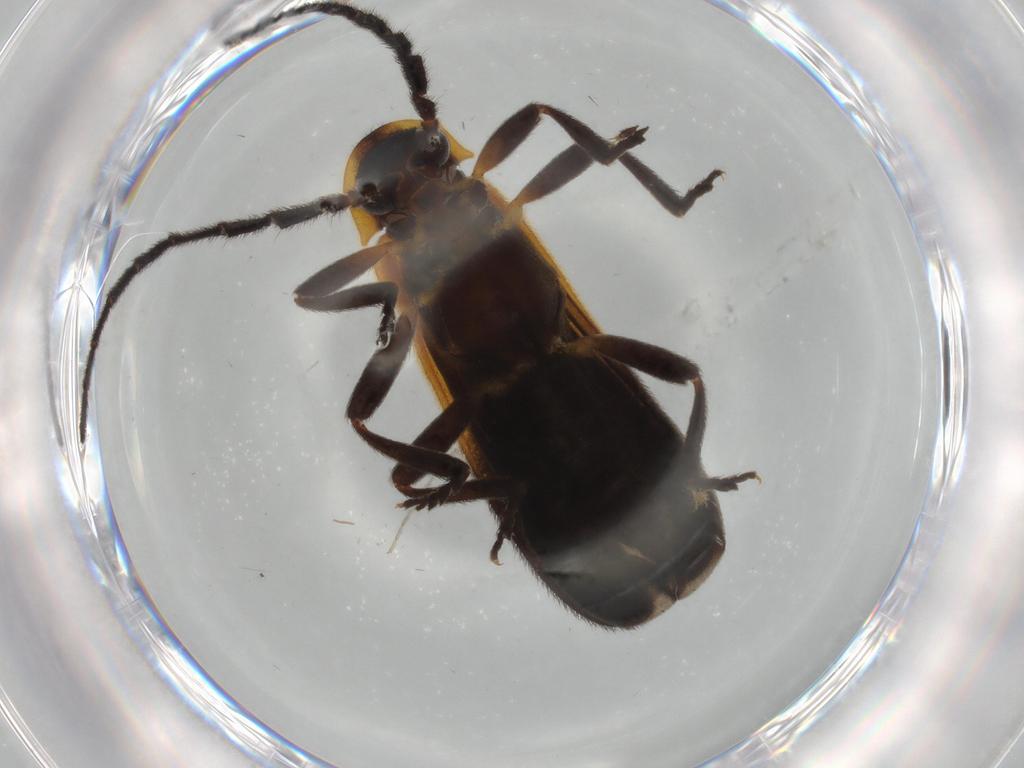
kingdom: Animalia
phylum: Arthropoda
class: Insecta
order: Coleoptera
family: Lycidae
